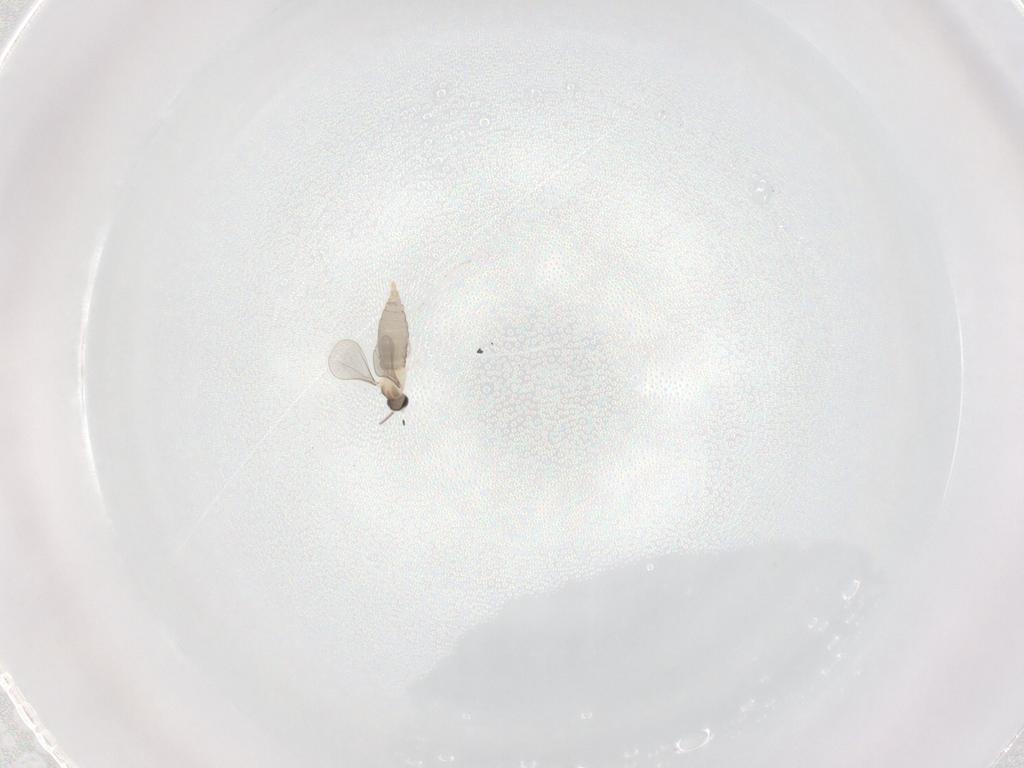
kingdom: Animalia
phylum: Arthropoda
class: Insecta
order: Diptera
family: Cecidomyiidae
